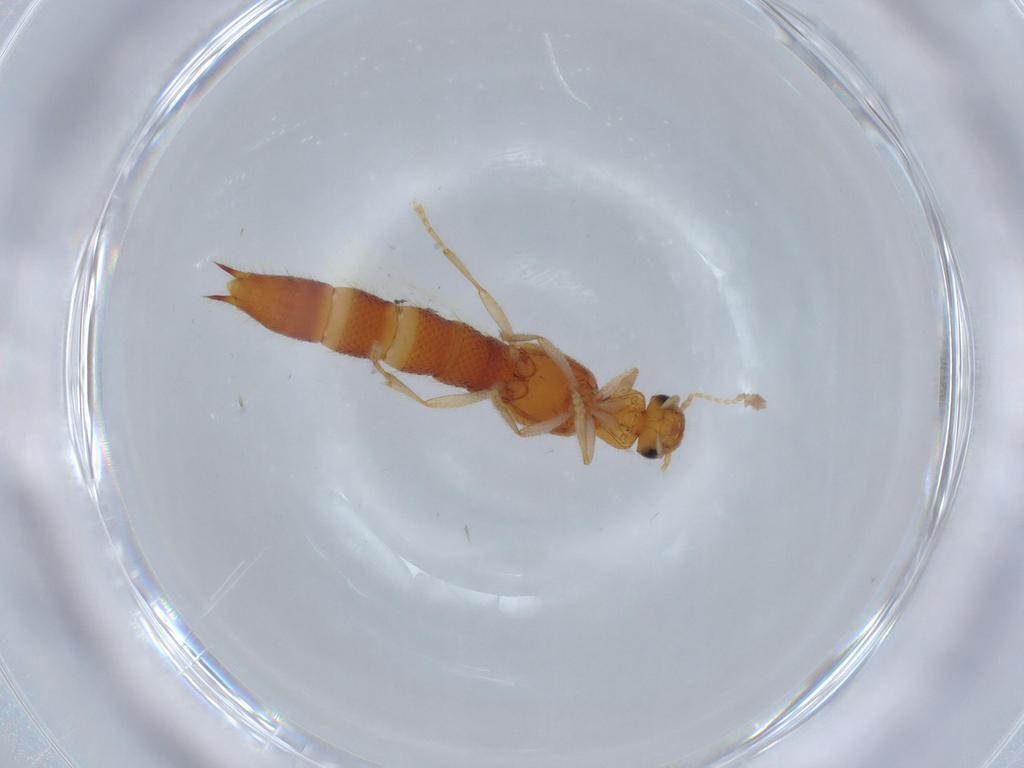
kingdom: Animalia
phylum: Arthropoda
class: Insecta
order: Coleoptera
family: Staphylinidae
